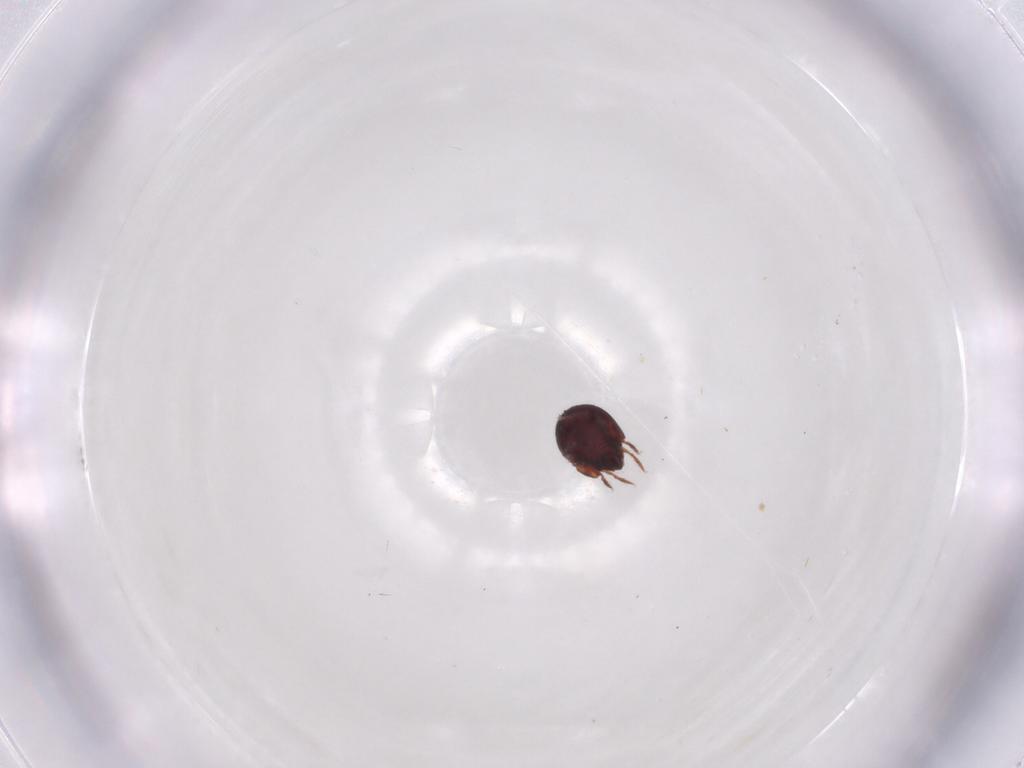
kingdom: Animalia
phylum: Arthropoda
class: Arachnida
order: Sarcoptiformes
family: Humerobatidae
